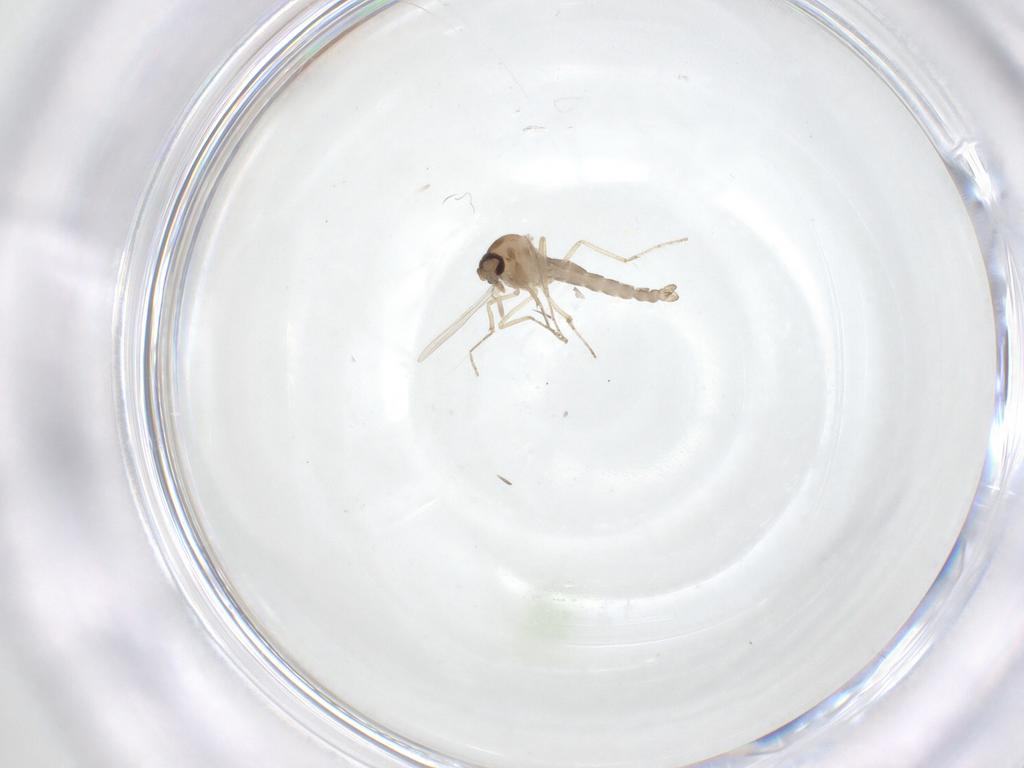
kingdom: Animalia
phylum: Arthropoda
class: Insecta
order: Diptera
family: Ceratopogonidae
